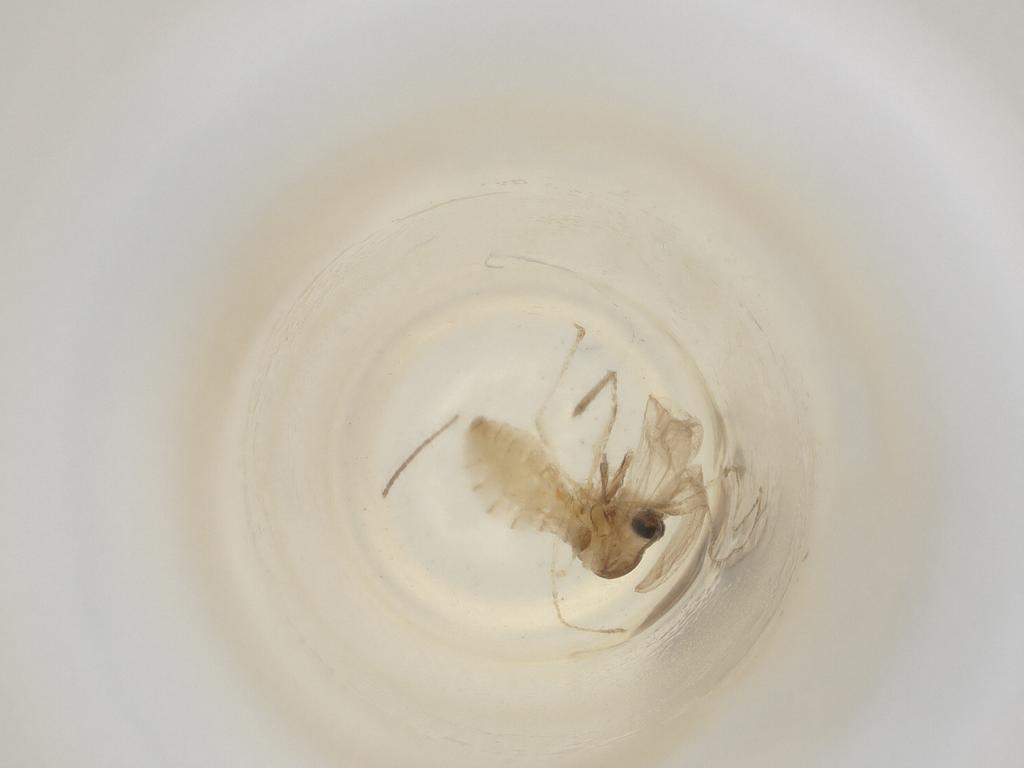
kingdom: Animalia
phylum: Arthropoda
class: Insecta
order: Diptera
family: Cecidomyiidae
